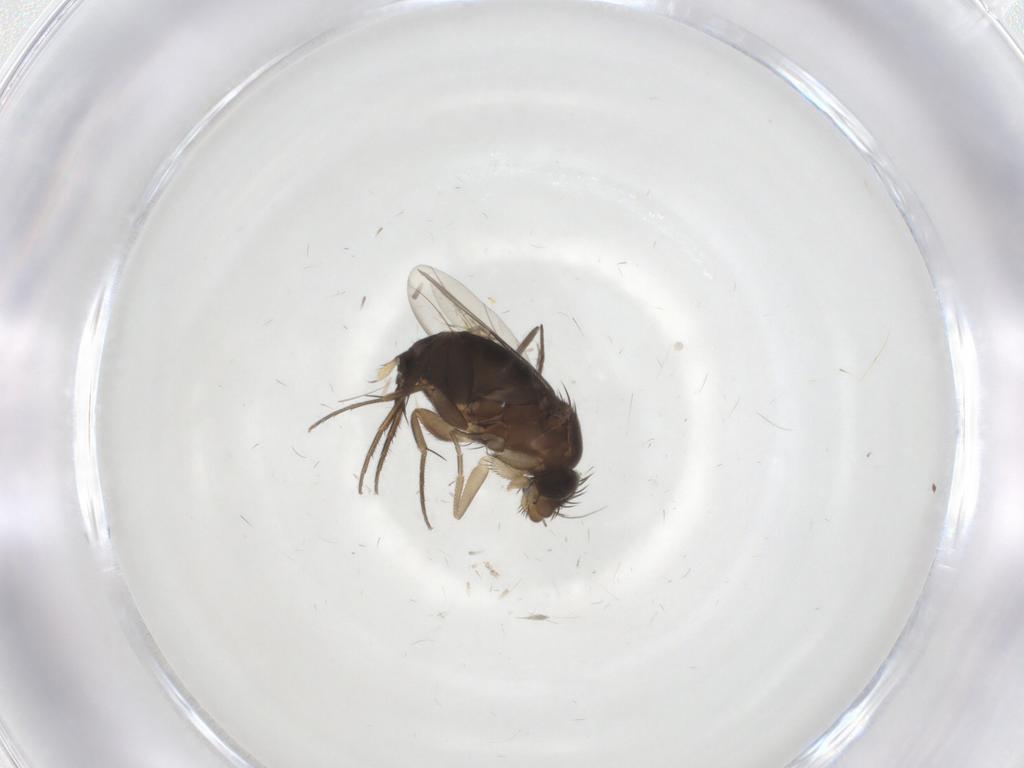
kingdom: Animalia
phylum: Arthropoda
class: Insecta
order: Diptera
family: Phoridae
